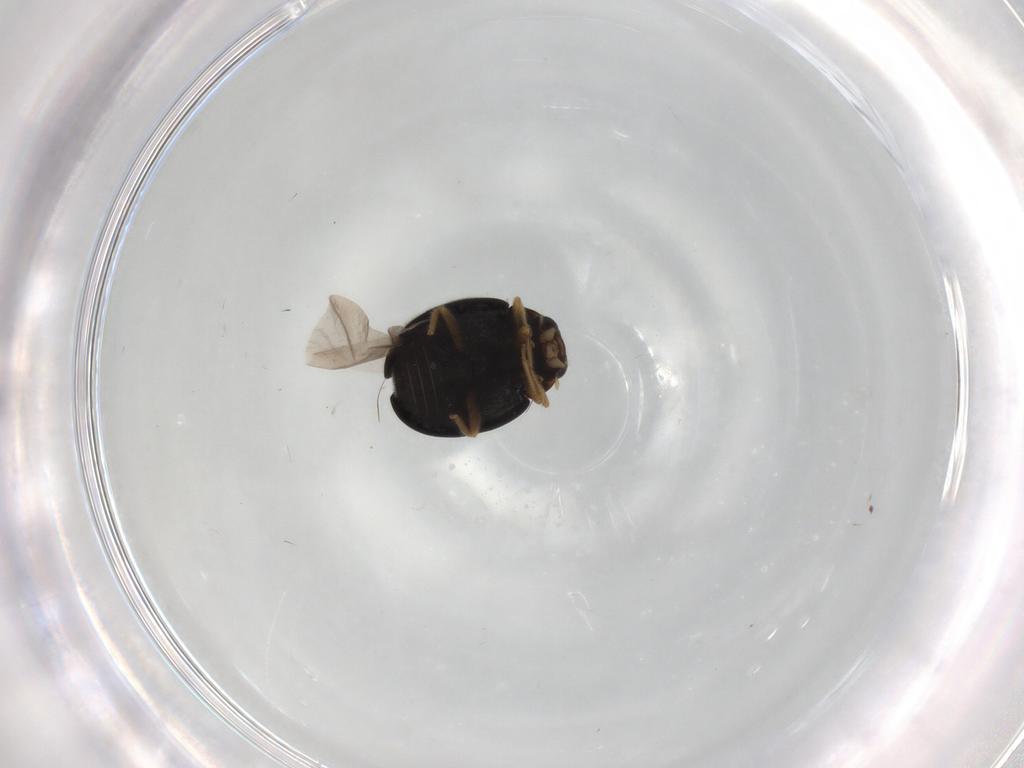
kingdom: Animalia
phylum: Arthropoda
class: Insecta
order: Coleoptera
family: Coccinellidae
